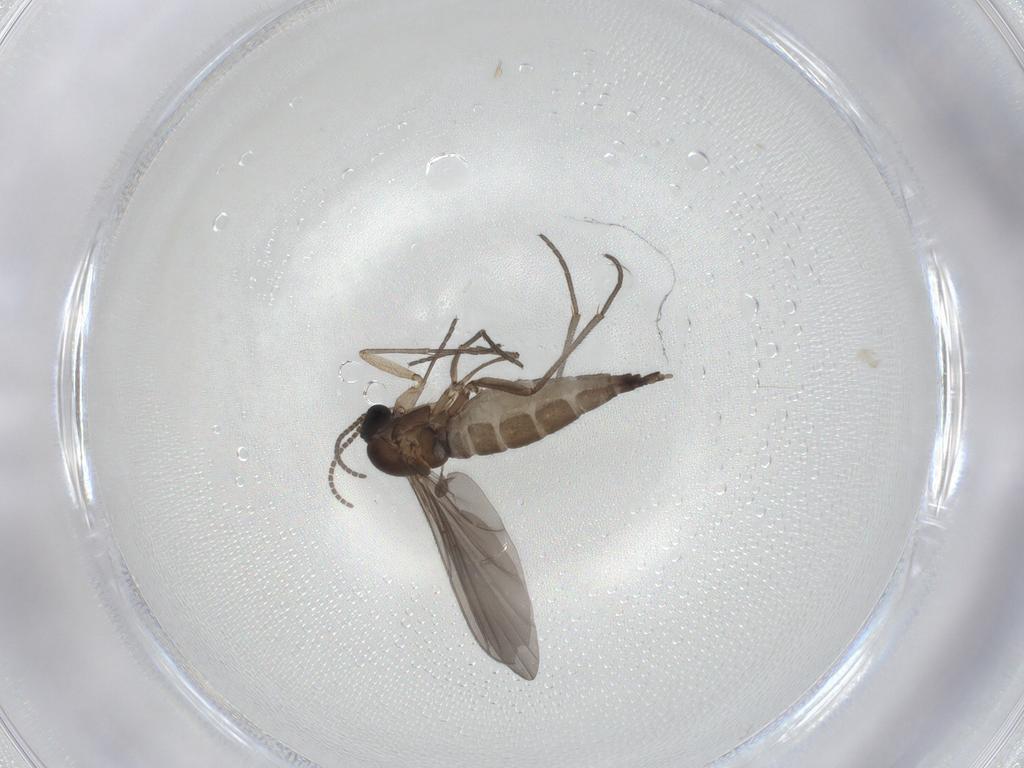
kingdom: Animalia
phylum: Arthropoda
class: Insecta
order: Diptera
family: Sciaridae
